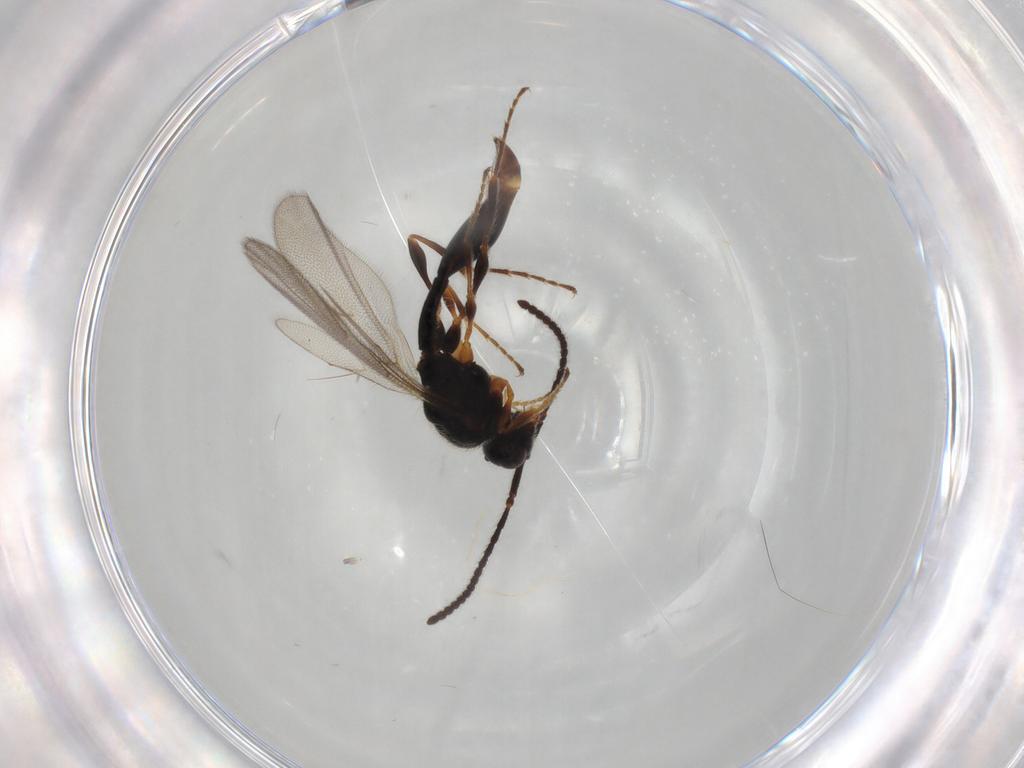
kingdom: Animalia
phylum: Arthropoda
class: Insecta
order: Hymenoptera
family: Diapriidae
